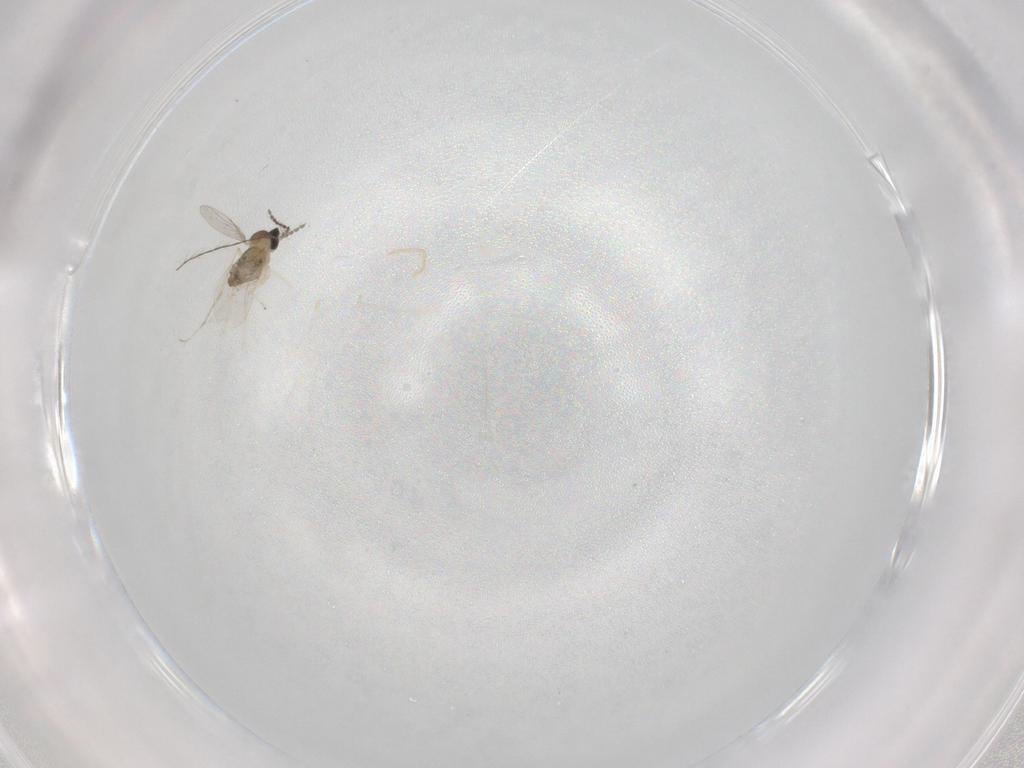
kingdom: Animalia
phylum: Arthropoda
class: Insecta
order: Diptera
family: Cecidomyiidae
